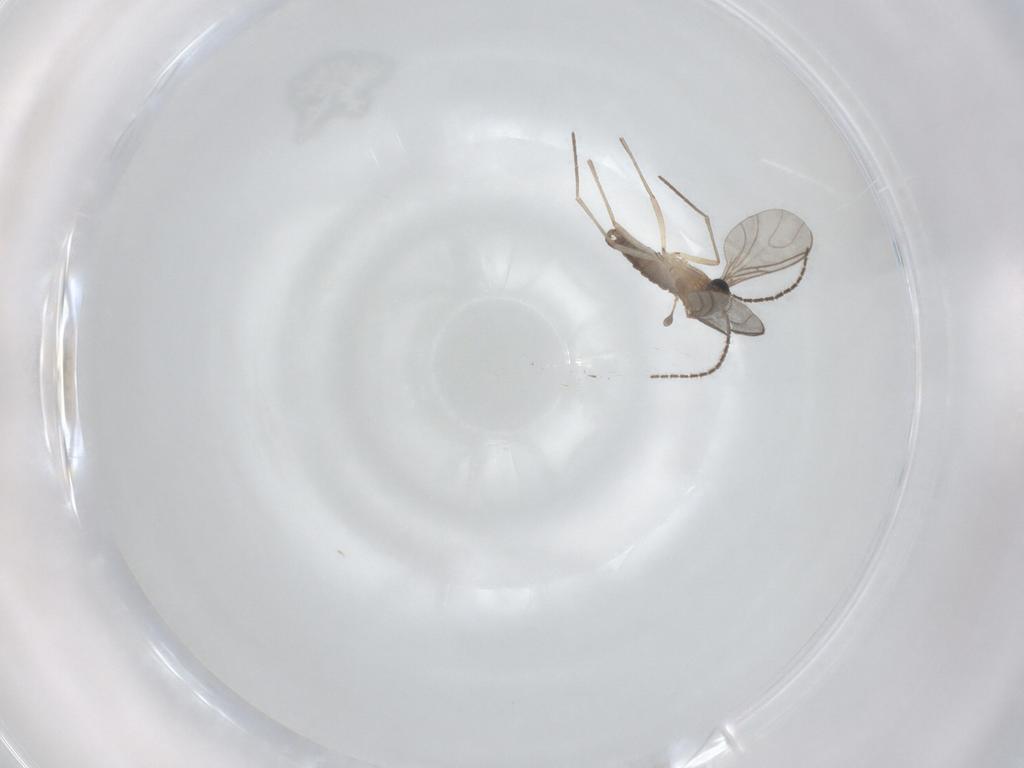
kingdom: Animalia
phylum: Arthropoda
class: Insecta
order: Diptera
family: Sciaridae
